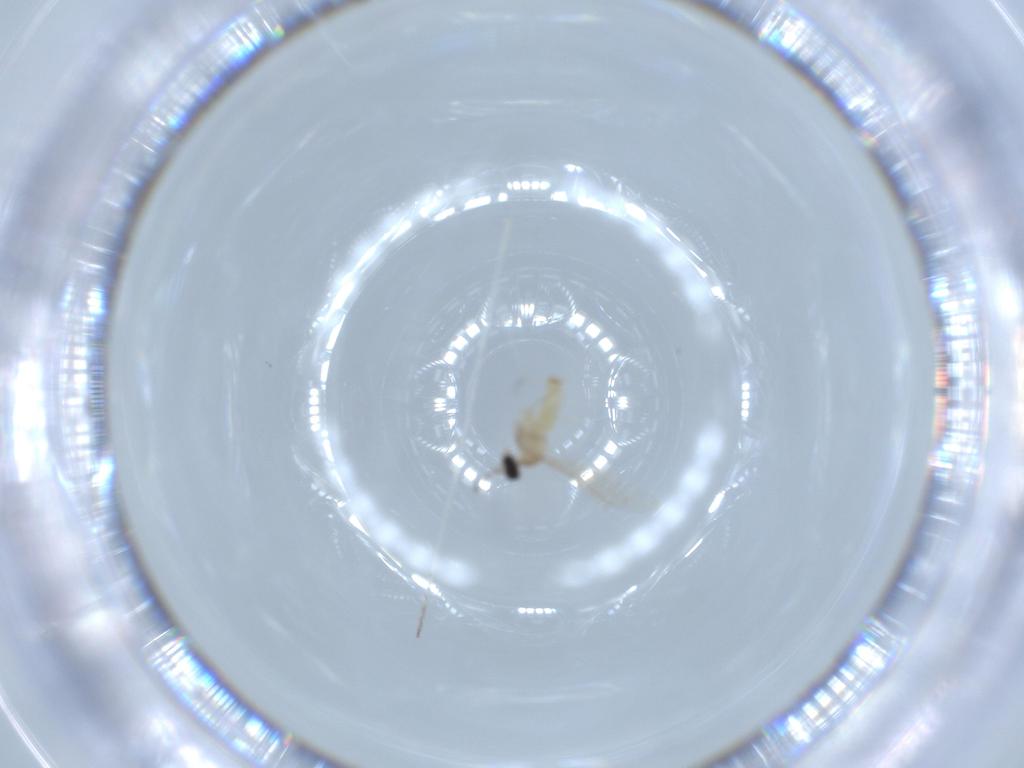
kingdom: Animalia
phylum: Arthropoda
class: Insecta
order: Diptera
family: Cecidomyiidae
